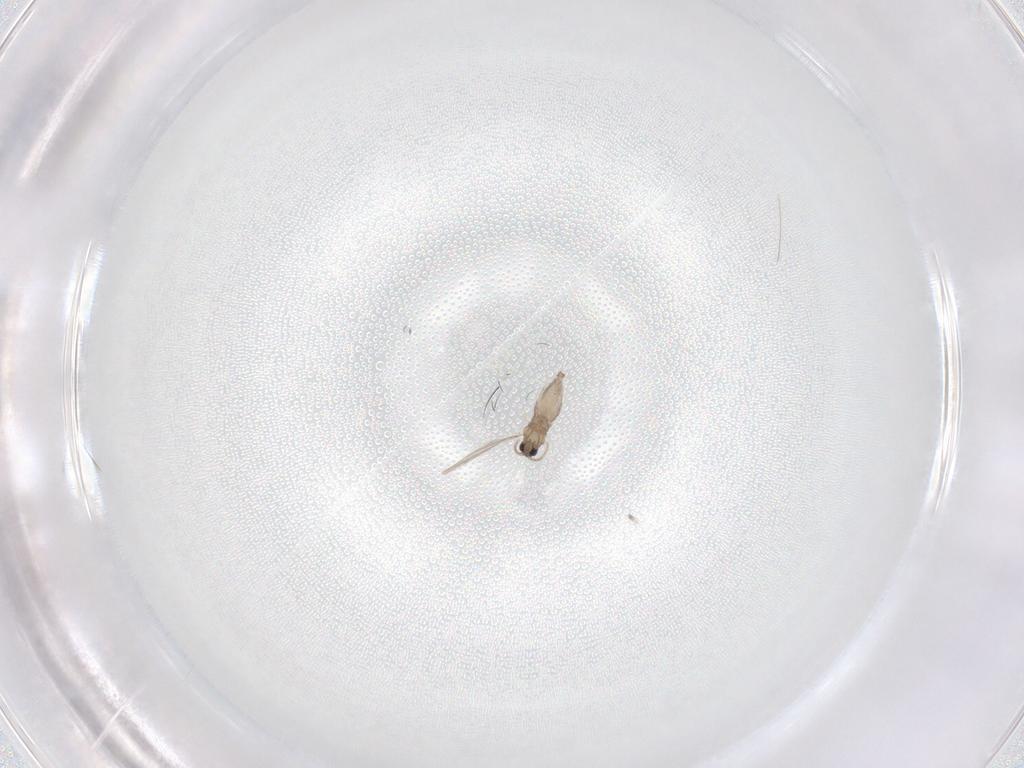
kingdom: Animalia
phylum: Arthropoda
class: Insecta
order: Diptera
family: Cecidomyiidae
